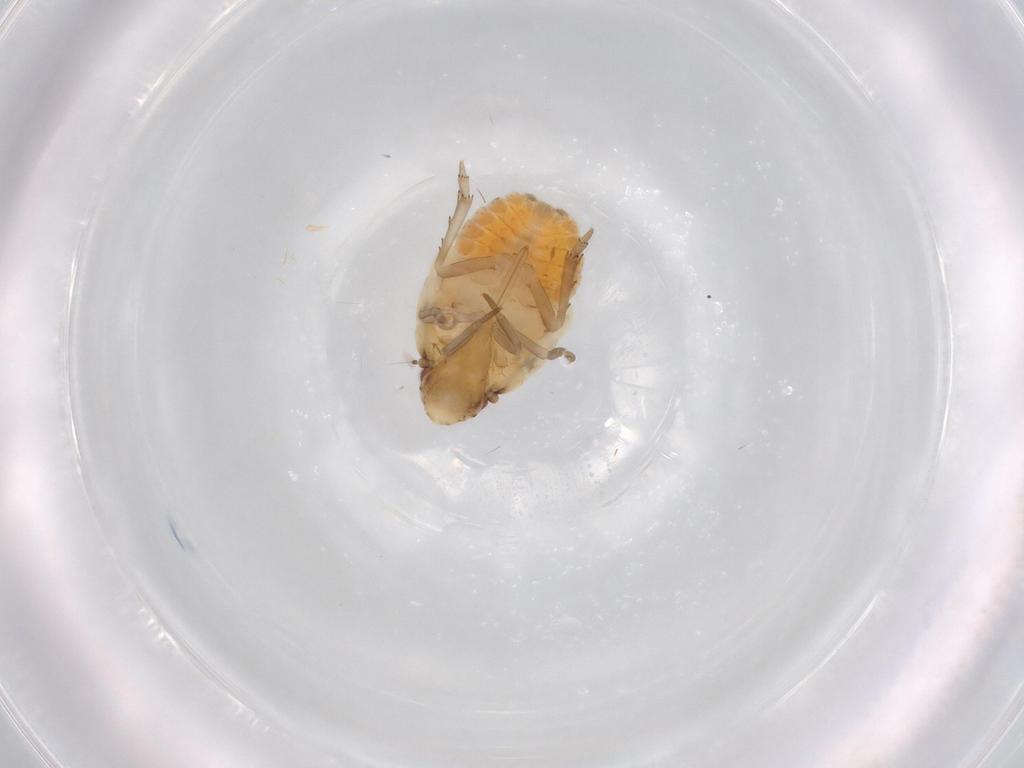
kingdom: Animalia
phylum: Arthropoda
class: Insecta
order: Hemiptera
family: Flatidae
